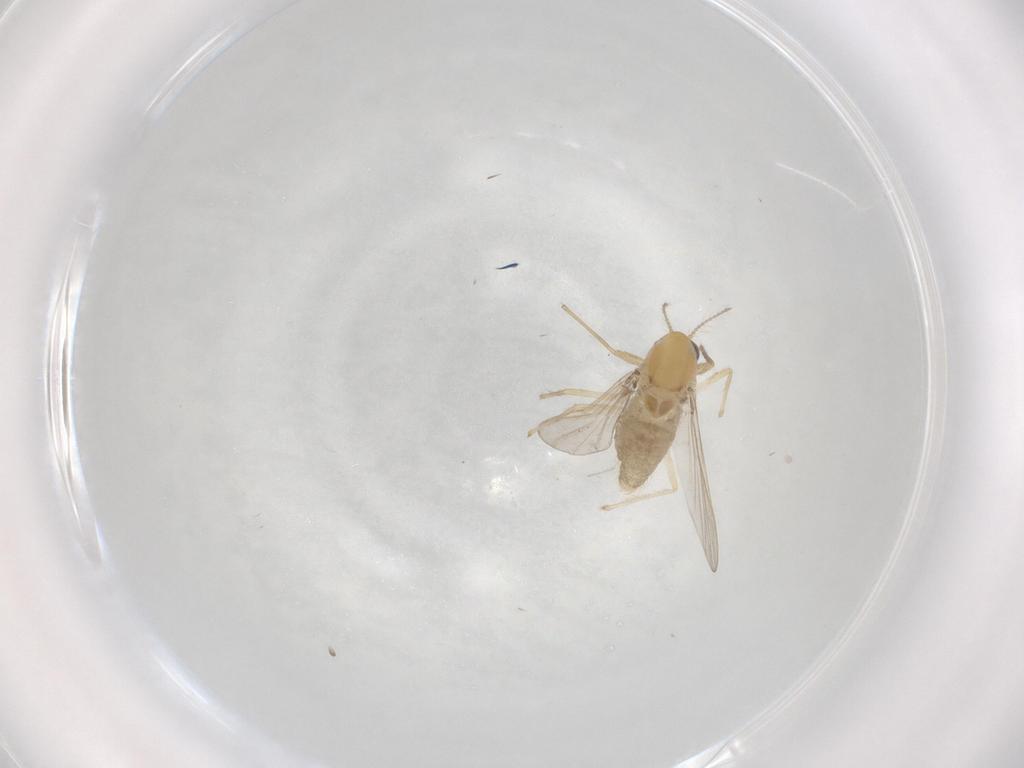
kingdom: Animalia
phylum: Arthropoda
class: Insecta
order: Diptera
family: Chironomidae
